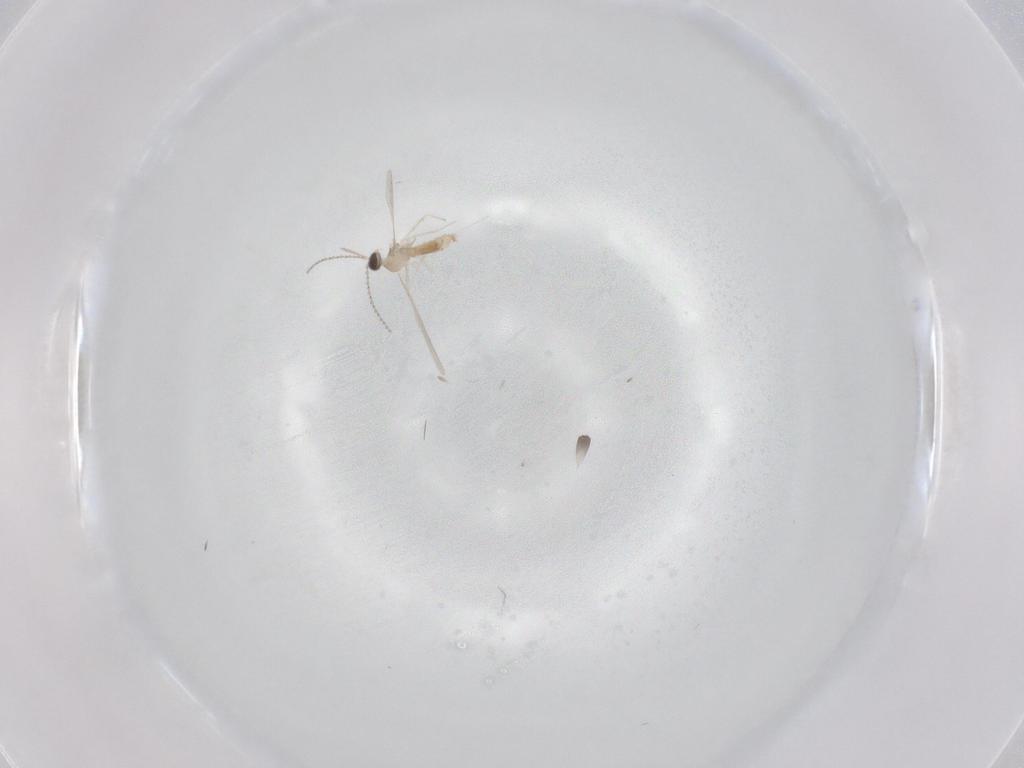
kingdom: Animalia
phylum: Arthropoda
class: Insecta
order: Diptera
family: Cecidomyiidae
